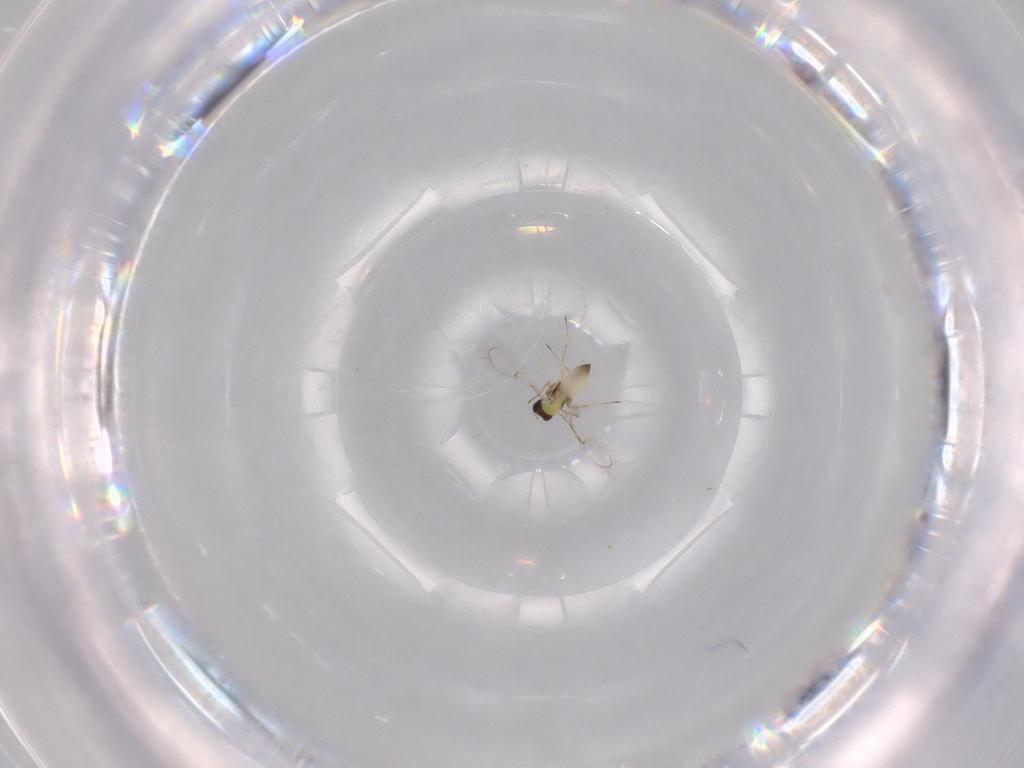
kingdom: Animalia
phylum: Arthropoda
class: Insecta
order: Hymenoptera
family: Trichogrammatidae
